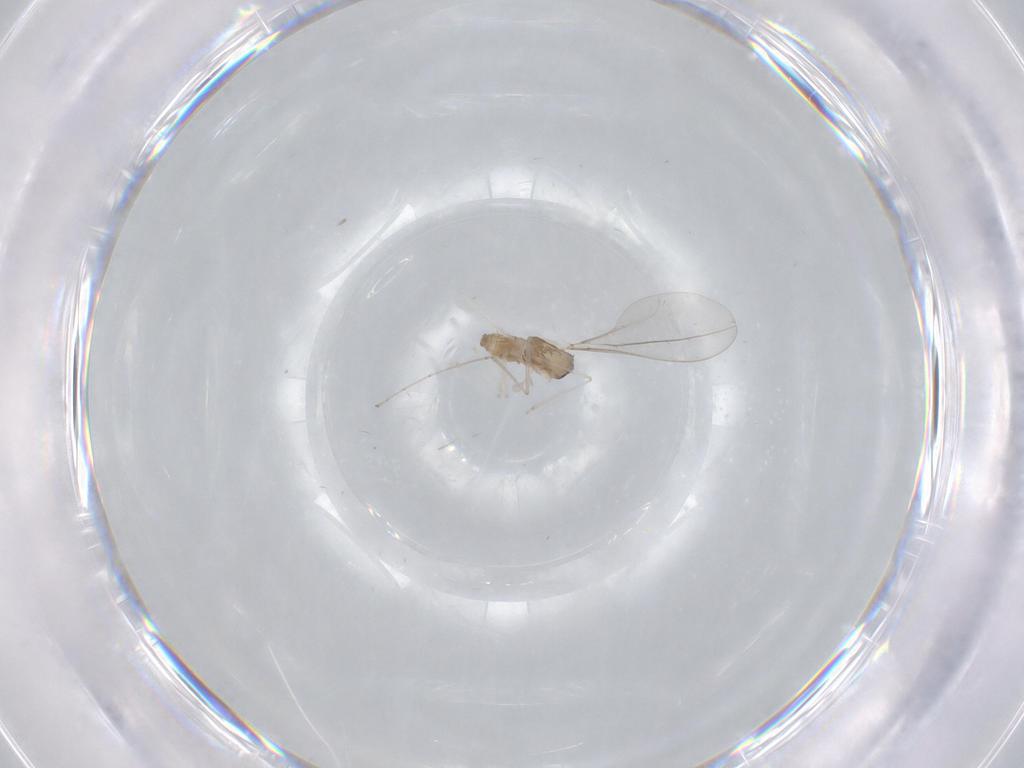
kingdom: Animalia
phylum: Arthropoda
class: Insecta
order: Diptera
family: Cecidomyiidae
